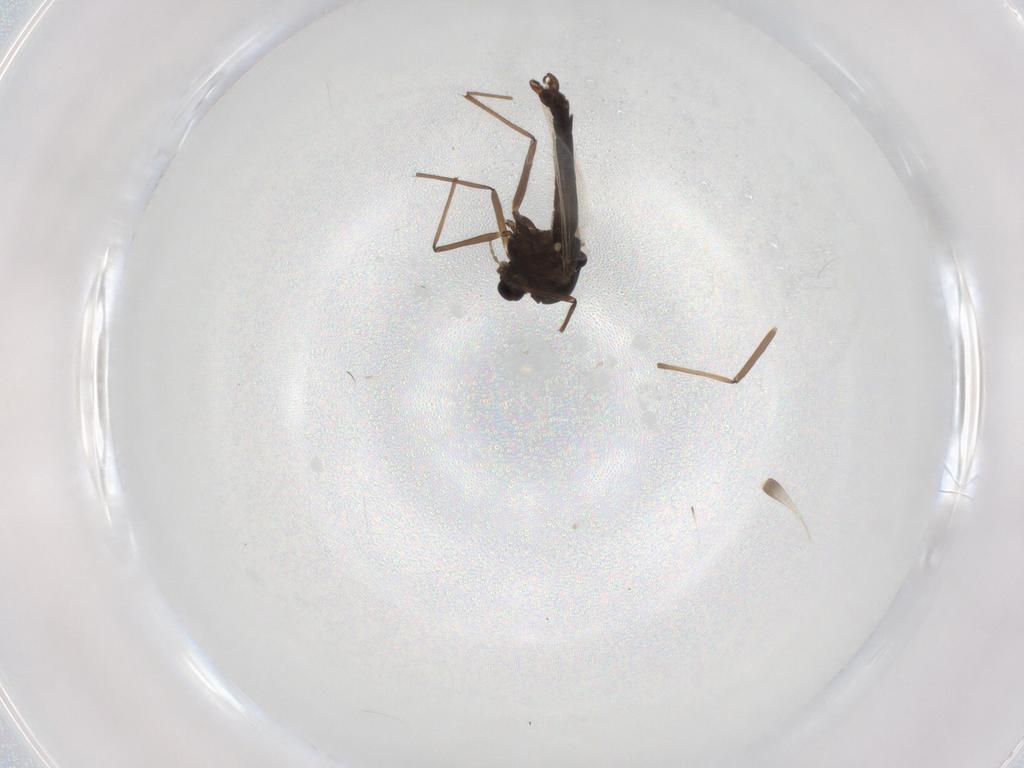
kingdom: Animalia
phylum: Arthropoda
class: Insecta
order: Diptera
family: Chironomidae
